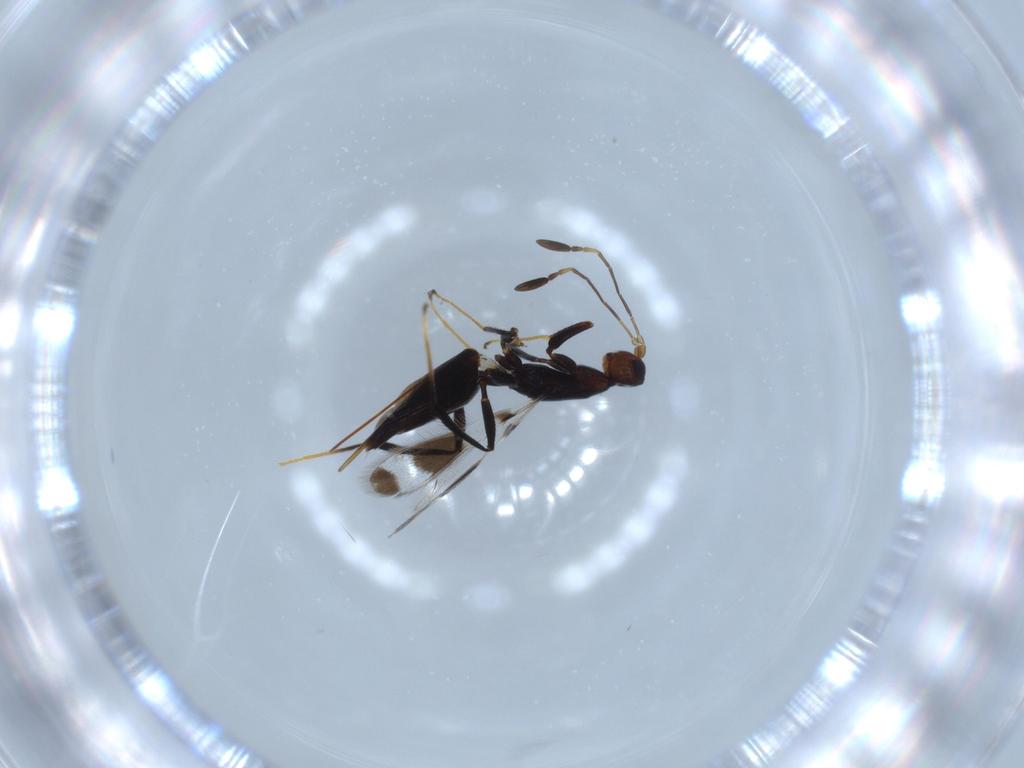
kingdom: Animalia
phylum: Arthropoda
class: Insecta
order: Hymenoptera
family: Mymaridae
